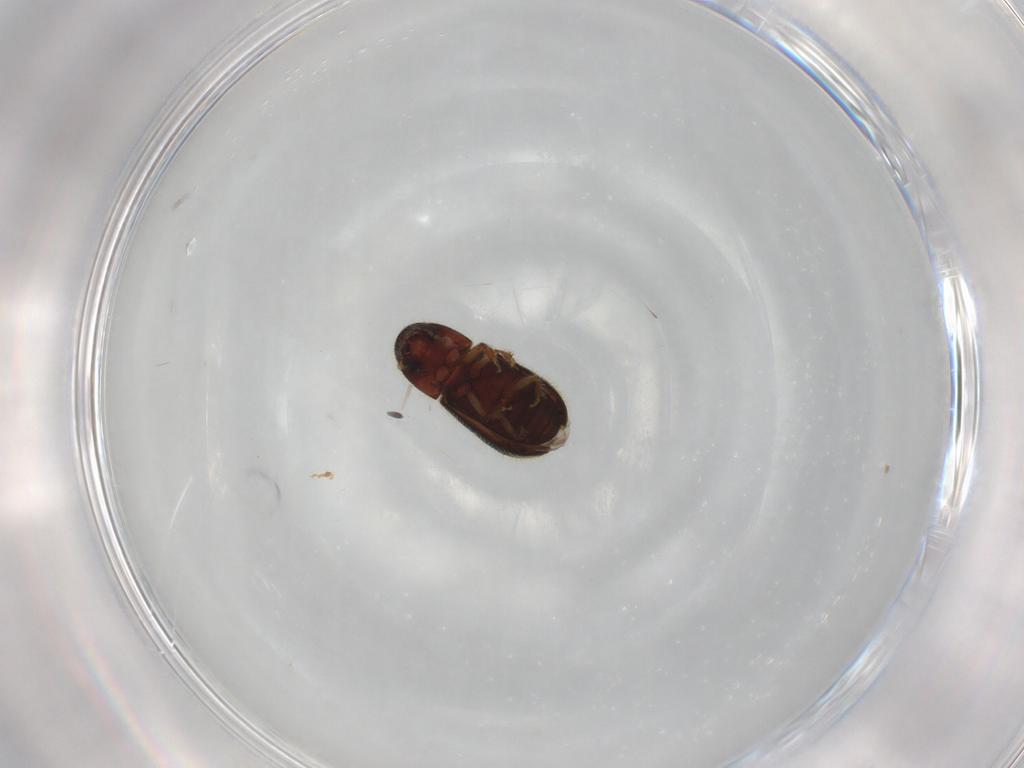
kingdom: Animalia
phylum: Arthropoda
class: Insecta
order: Coleoptera
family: Curculionidae
